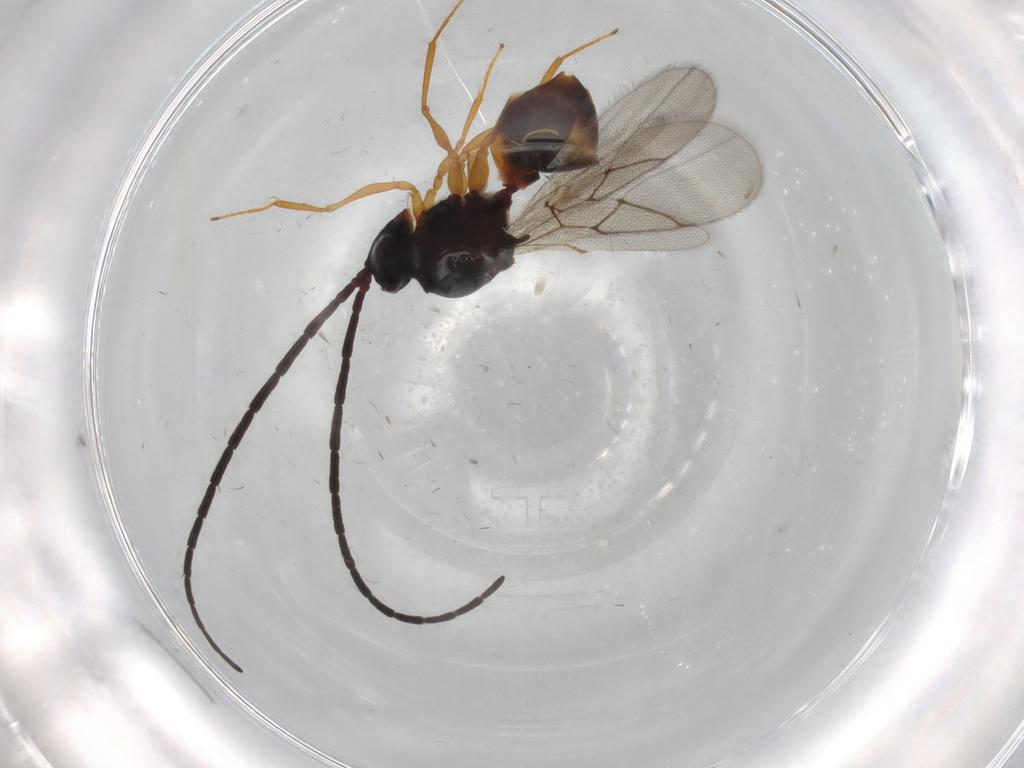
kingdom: Animalia
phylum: Arthropoda
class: Insecta
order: Hymenoptera
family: Figitidae
